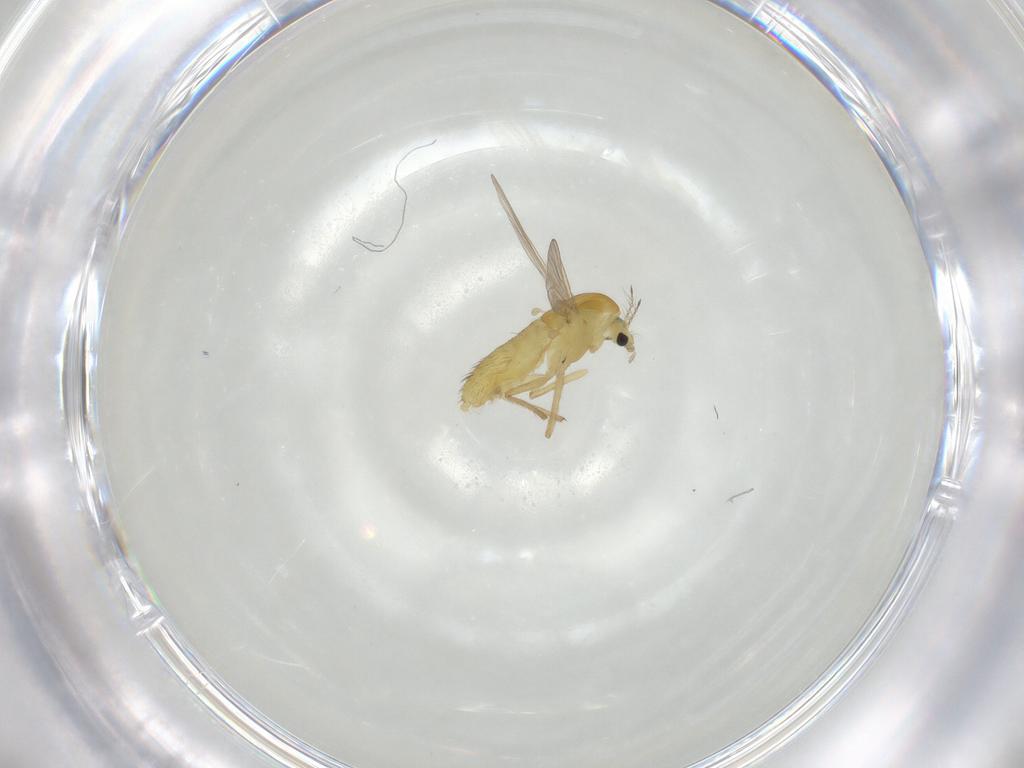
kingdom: Animalia
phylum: Arthropoda
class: Insecta
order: Diptera
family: Chironomidae
